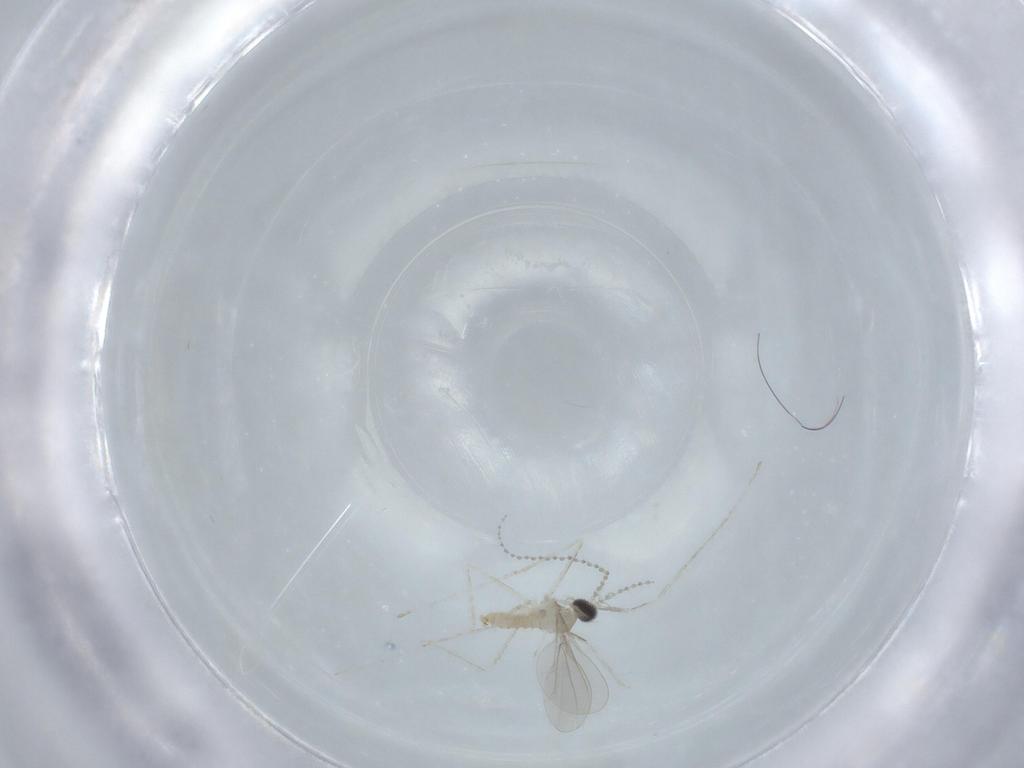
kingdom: Animalia
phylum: Arthropoda
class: Insecta
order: Diptera
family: Cecidomyiidae
